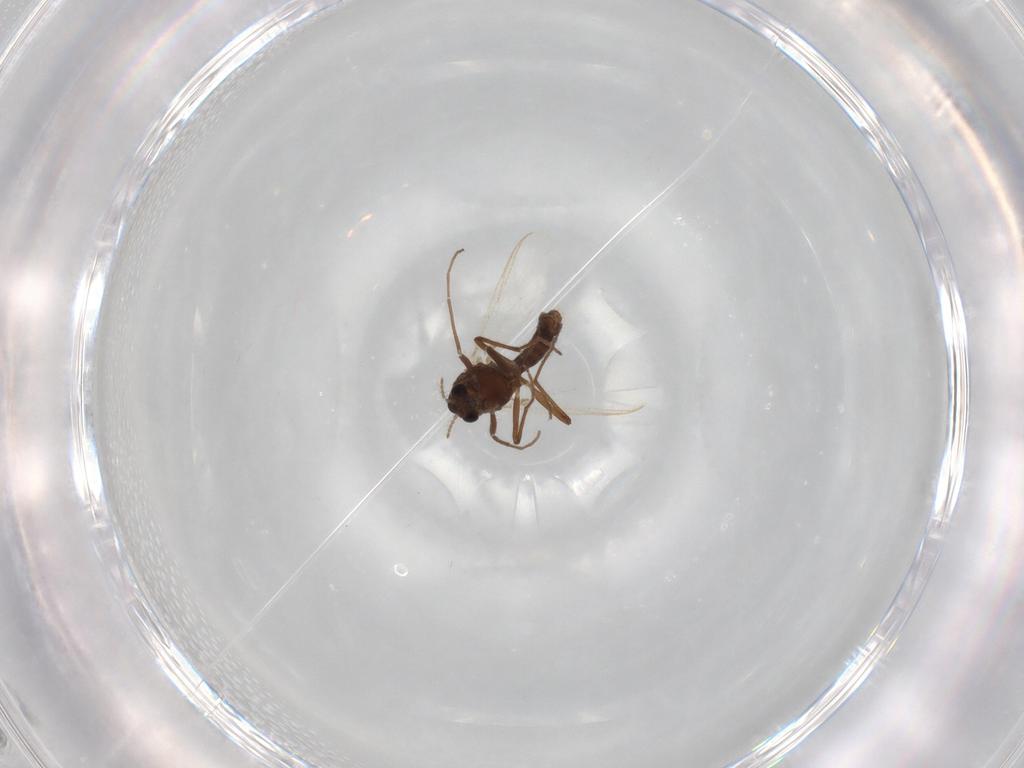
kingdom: Animalia
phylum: Arthropoda
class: Insecta
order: Diptera
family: Chironomidae
